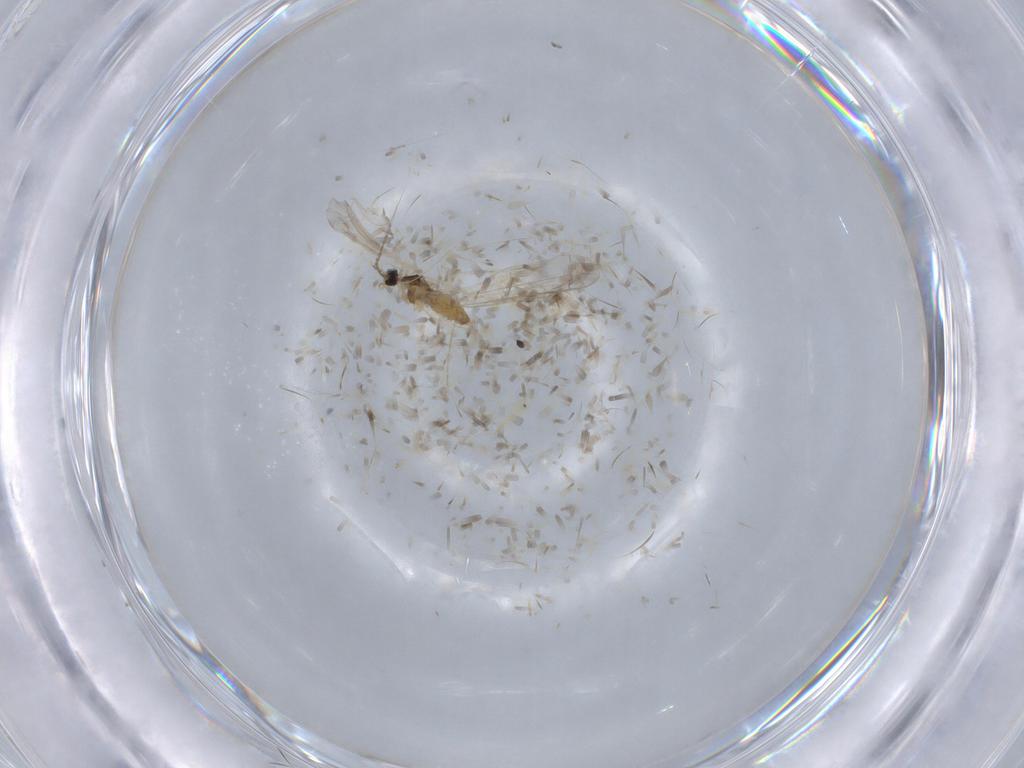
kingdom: Animalia
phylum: Arthropoda
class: Insecta
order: Diptera
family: Cecidomyiidae
